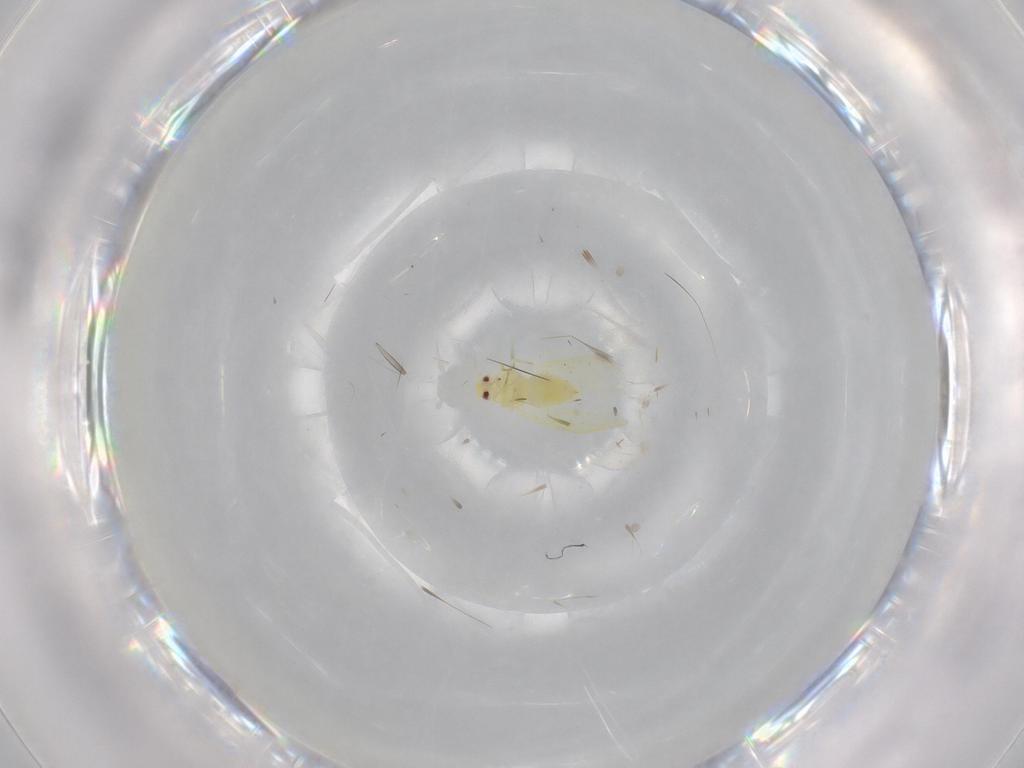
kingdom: Animalia
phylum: Arthropoda
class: Insecta
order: Hemiptera
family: Aleyrodidae
